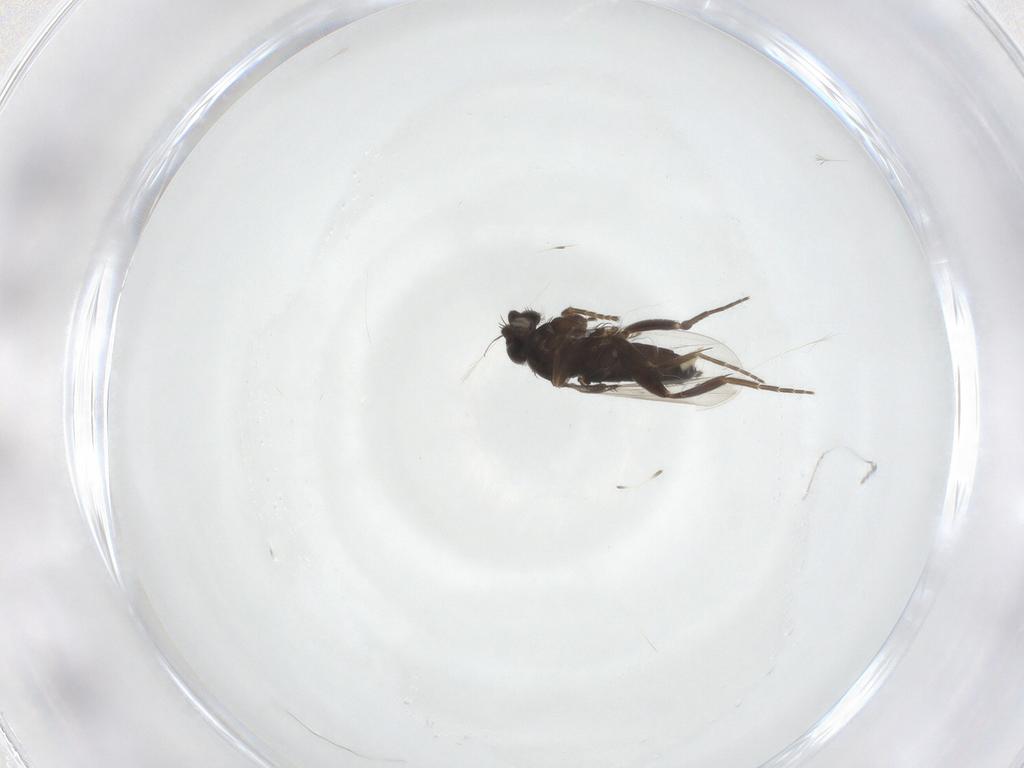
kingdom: Animalia
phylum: Arthropoda
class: Insecta
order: Diptera
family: Phoridae
